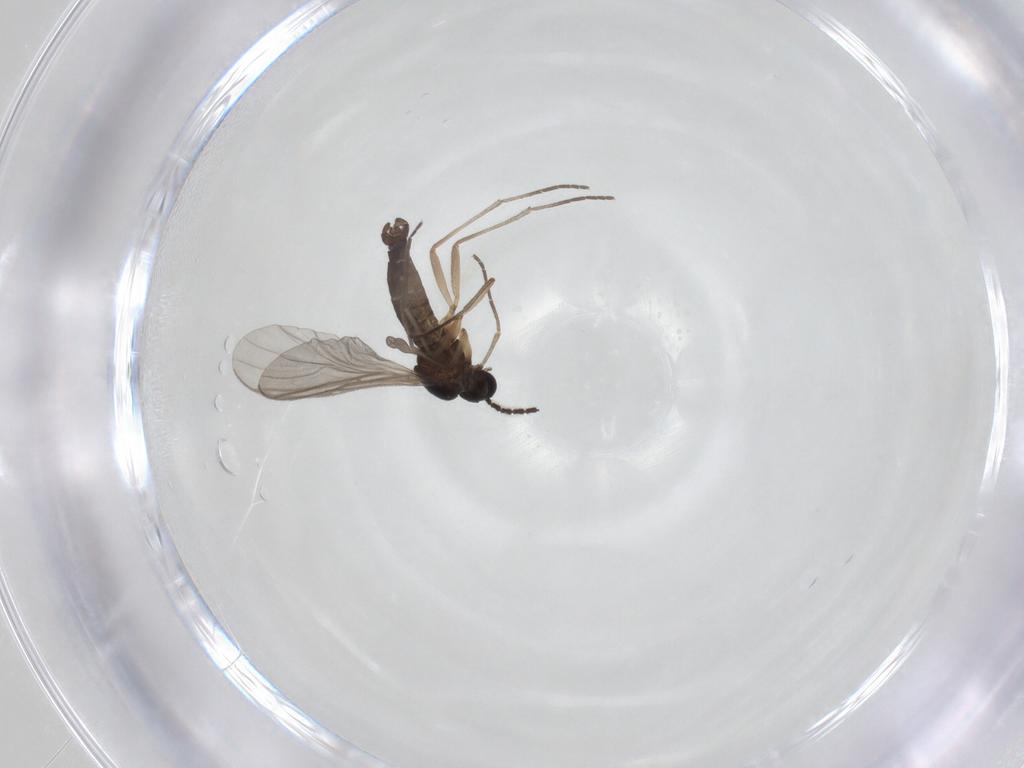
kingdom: Animalia
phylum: Arthropoda
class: Insecta
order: Diptera
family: Sciaridae
